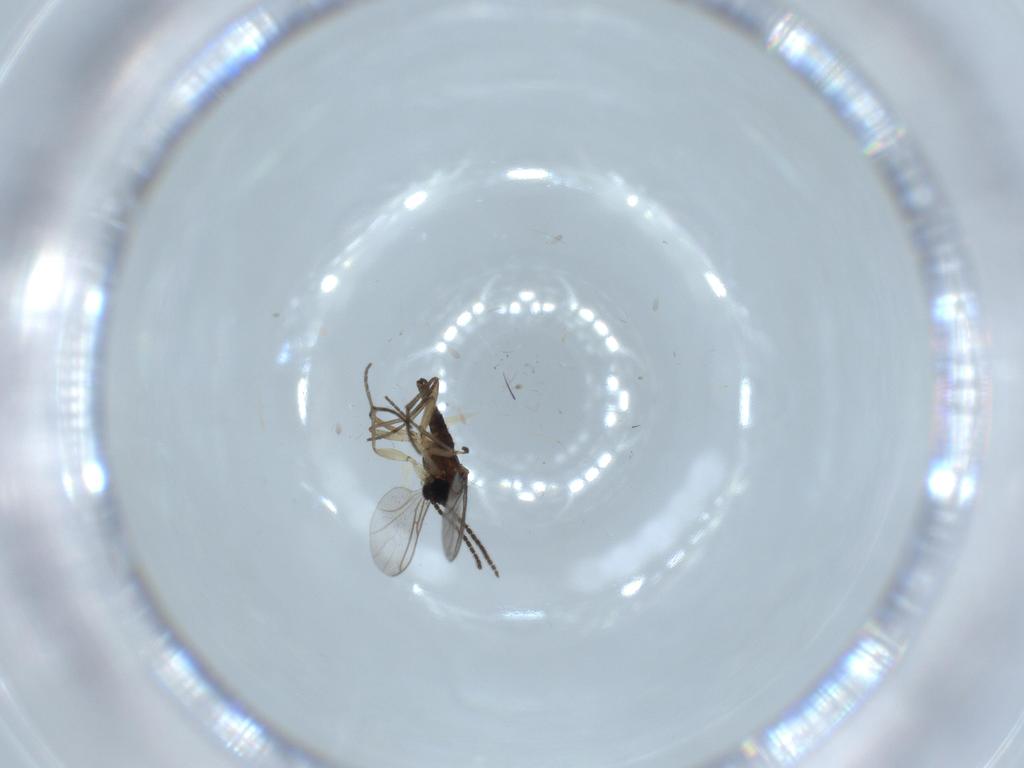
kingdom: Animalia
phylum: Arthropoda
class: Insecta
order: Diptera
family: Sciaridae
